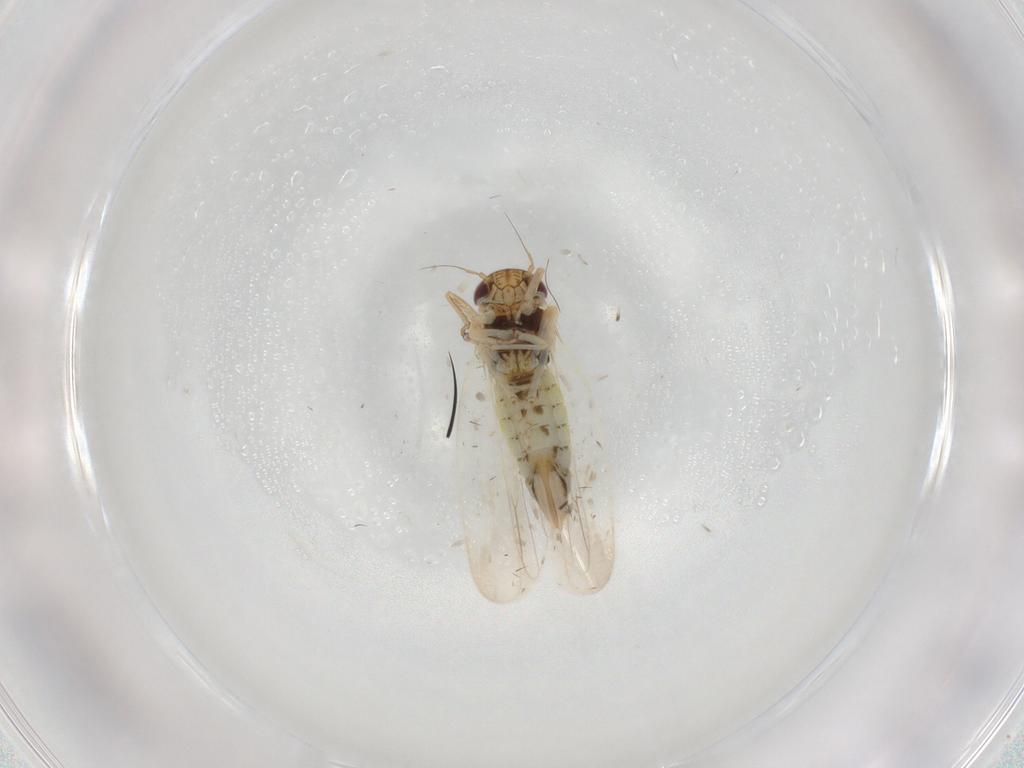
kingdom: Animalia
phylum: Arthropoda
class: Insecta
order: Hemiptera
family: Cicadellidae
